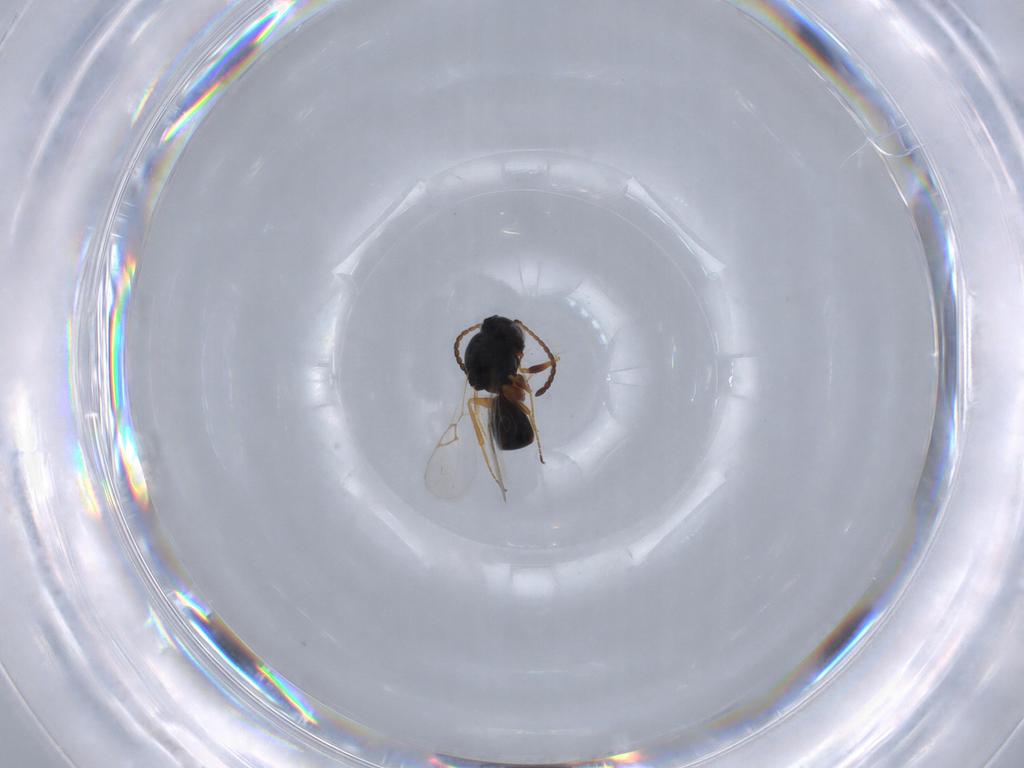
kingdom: Animalia
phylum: Arthropoda
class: Insecta
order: Hymenoptera
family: Figitidae
